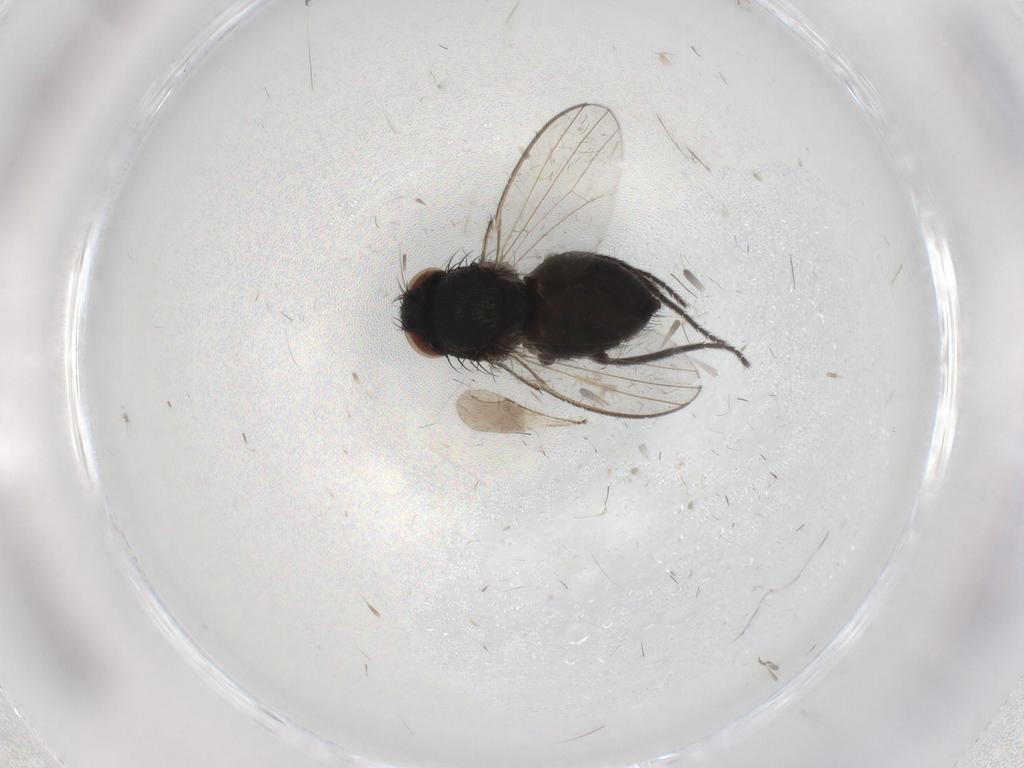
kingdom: Animalia
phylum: Arthropoda
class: Insecta
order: Diptera
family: Milichiidae
